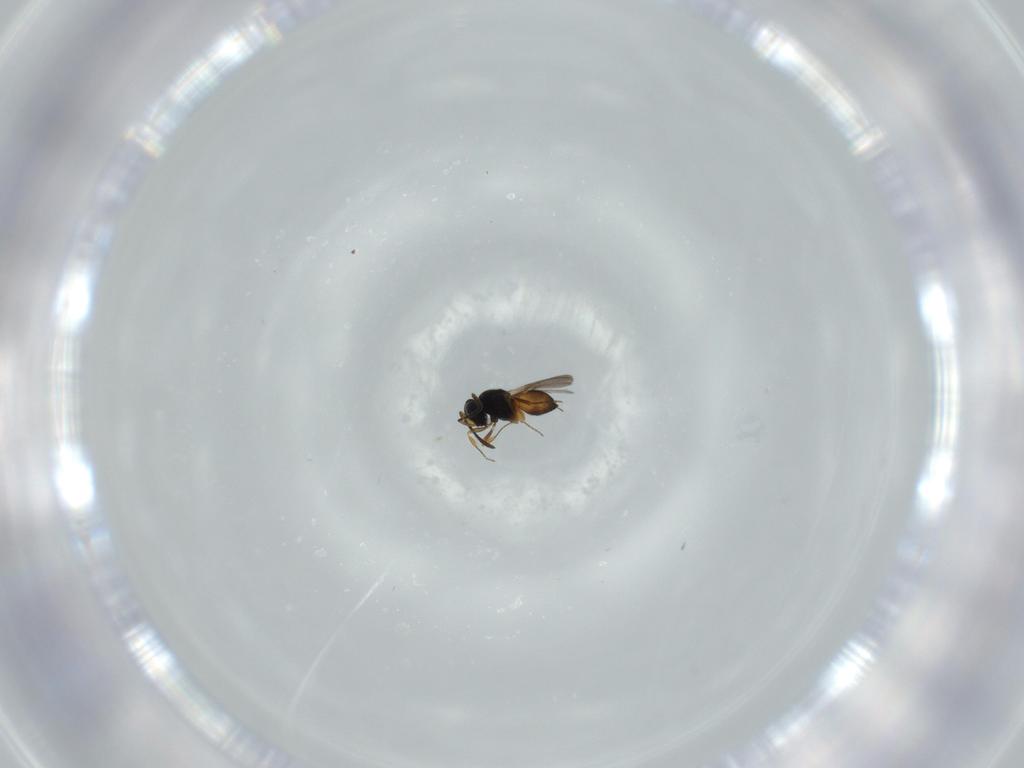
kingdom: Animalia
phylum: Arthropoda
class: Insecta
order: Hymenoptera
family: Scelionidae
